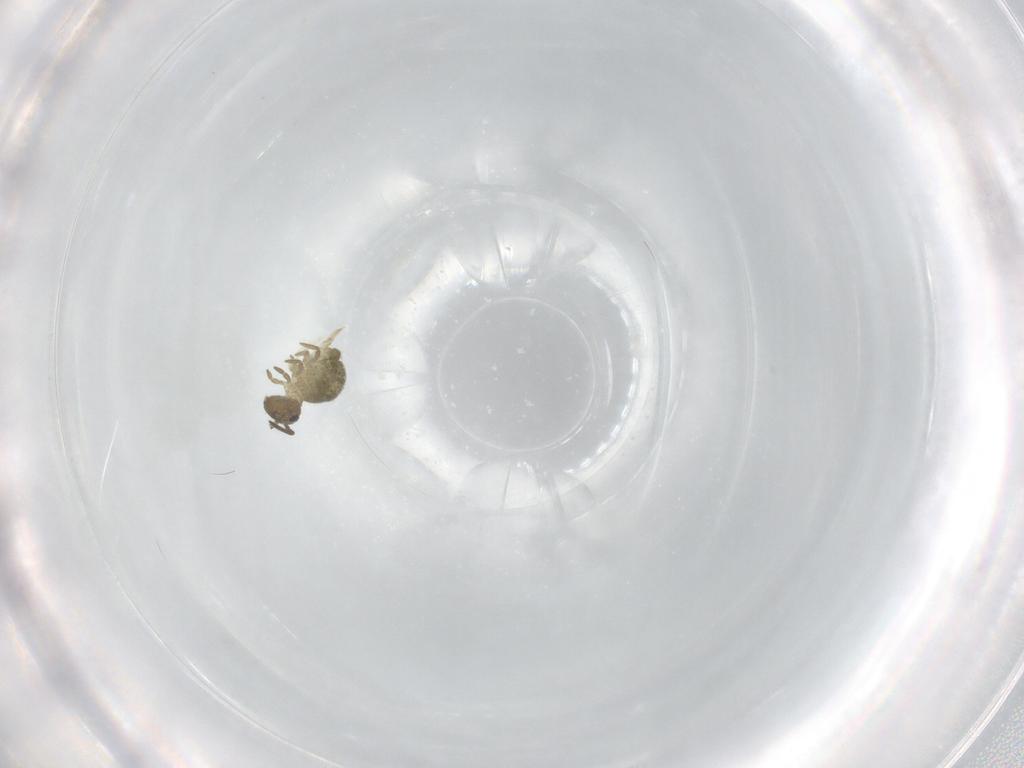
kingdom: Animalia
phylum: Arthropoda
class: Collembola
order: Symphypleona
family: Sminthuridae
